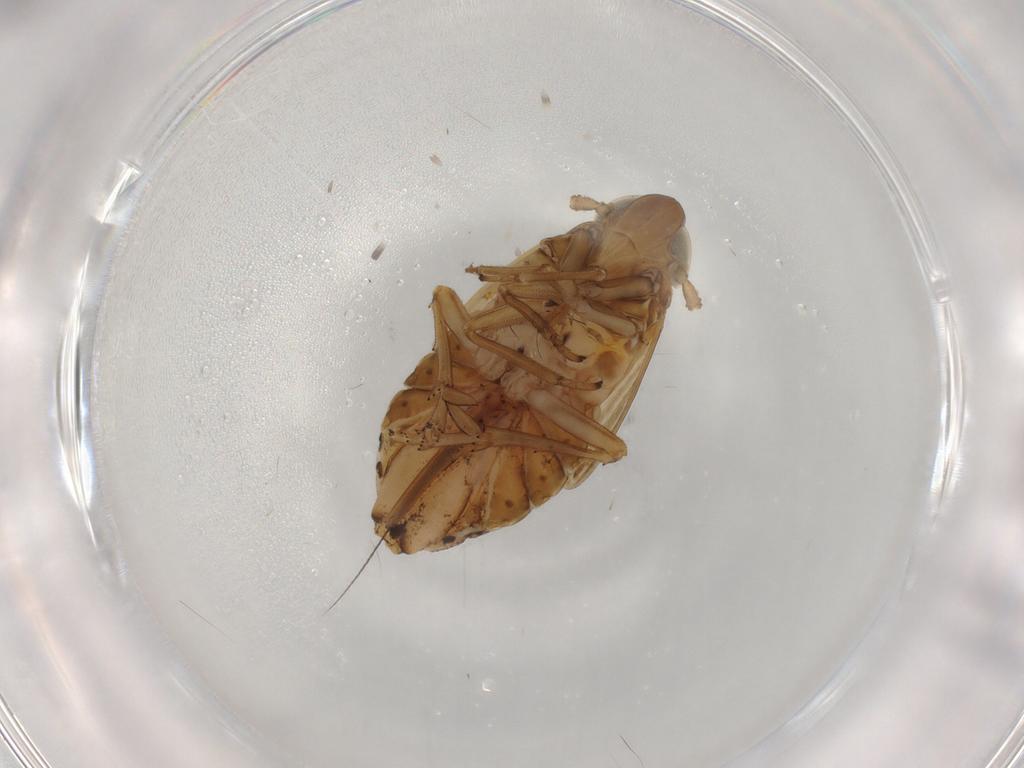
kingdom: Animalia
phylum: Arthropoda
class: Insecta
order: Hemiptera
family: Delphacidae
